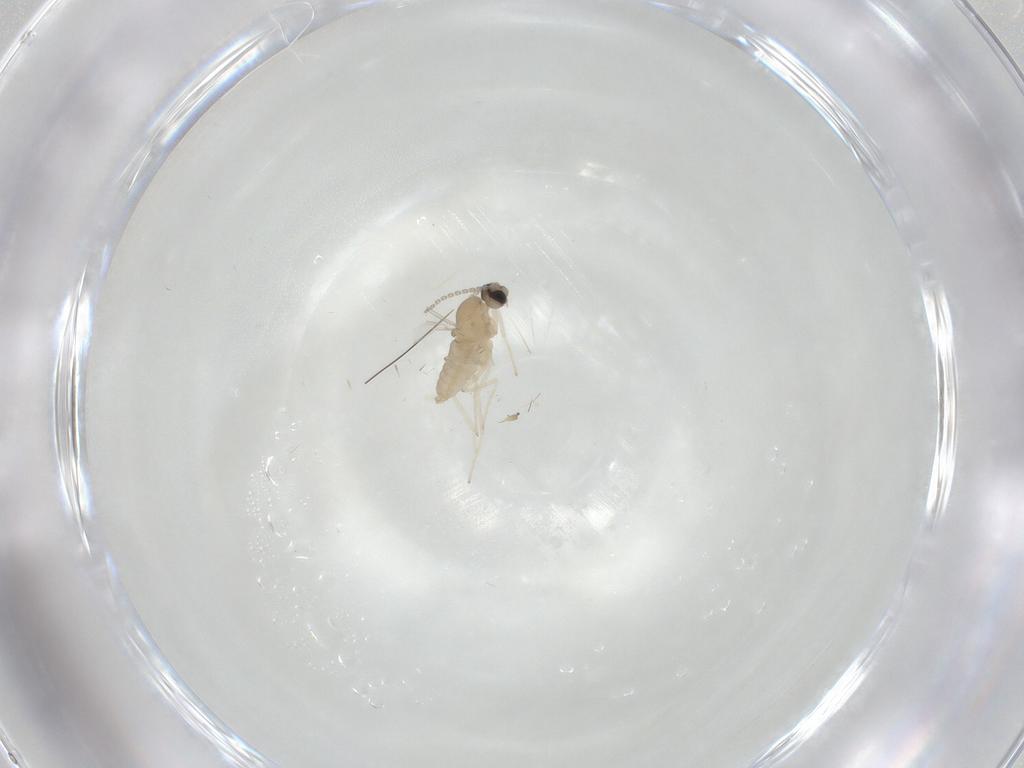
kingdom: Animalia
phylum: Arthropoda
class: Insecta
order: Diptera
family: Cecidomyiidae
